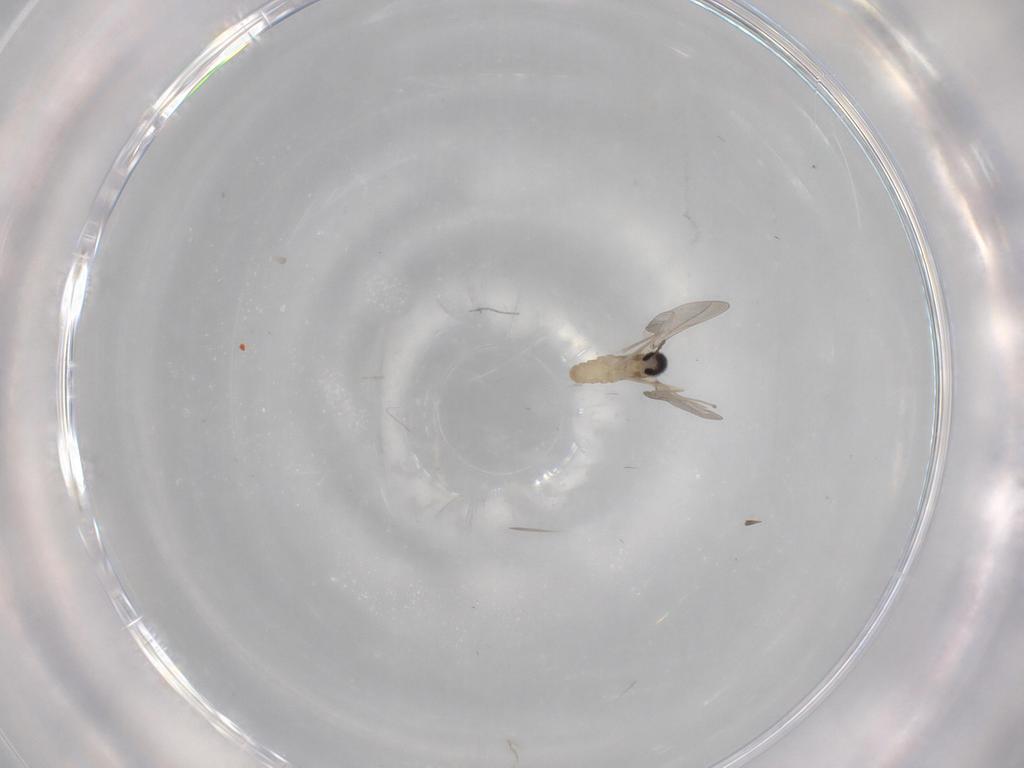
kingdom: Animalia
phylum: Arthropoda
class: Insecta
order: Diptera
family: Cecidomyiidae
